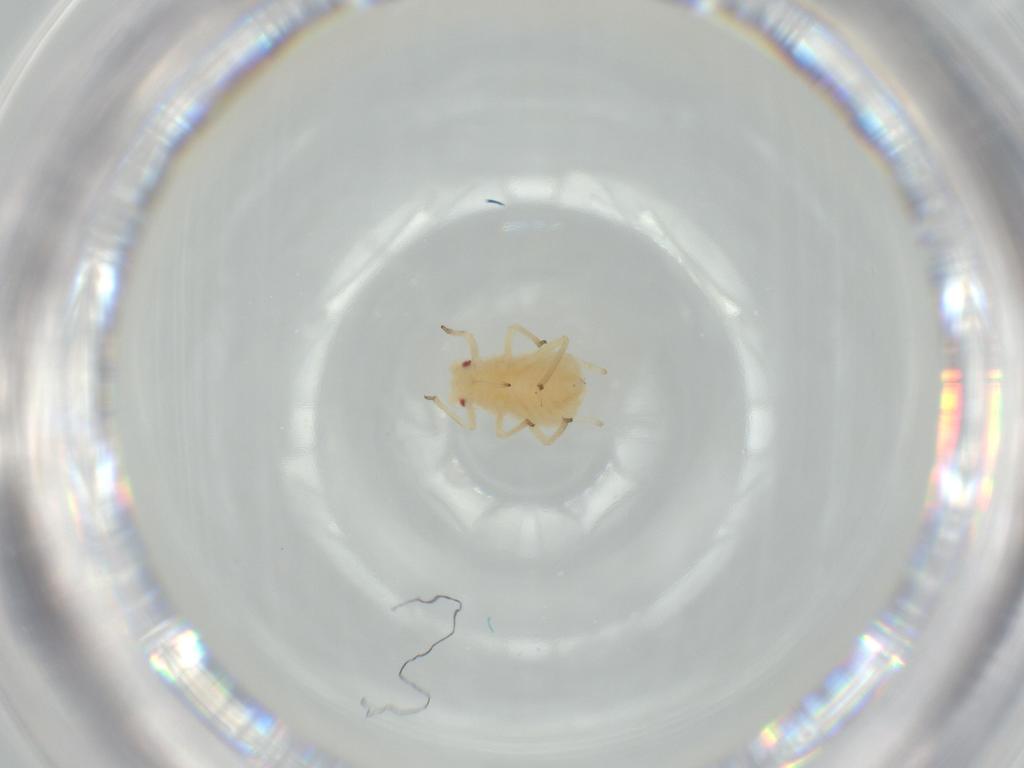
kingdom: Animalia
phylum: Arthropoda
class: Insecta
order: Hemiptera
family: Aphididae
